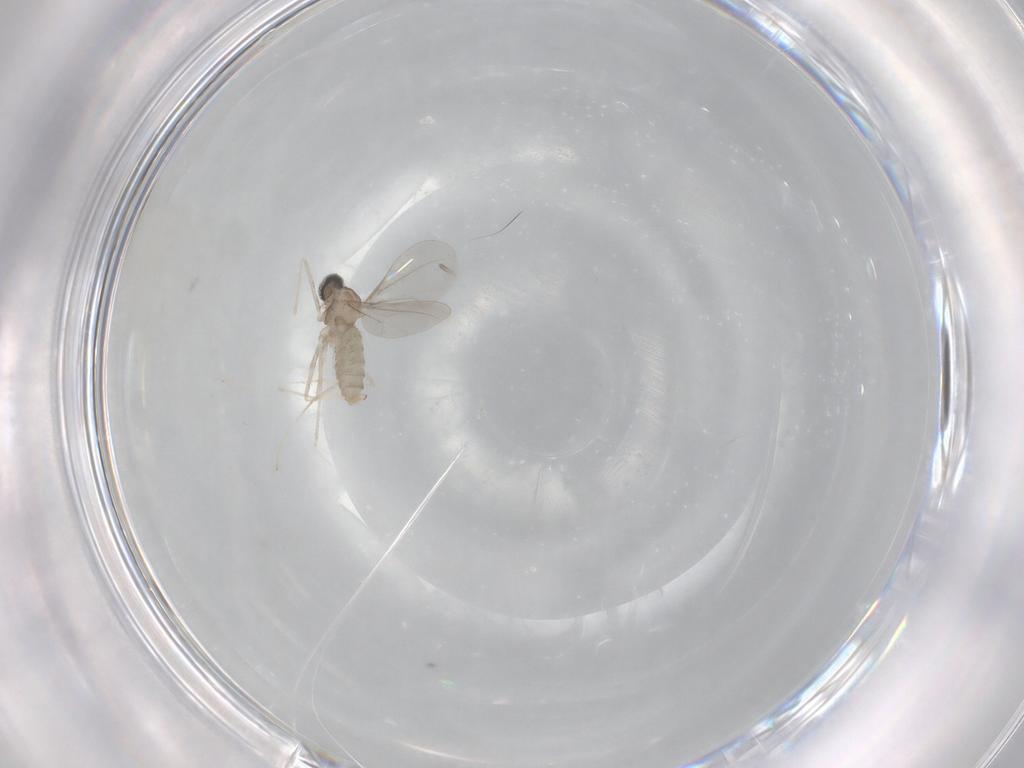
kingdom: Animalia
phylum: Arthropoda
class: Insecta
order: Diptera
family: Cecidomyiidae
